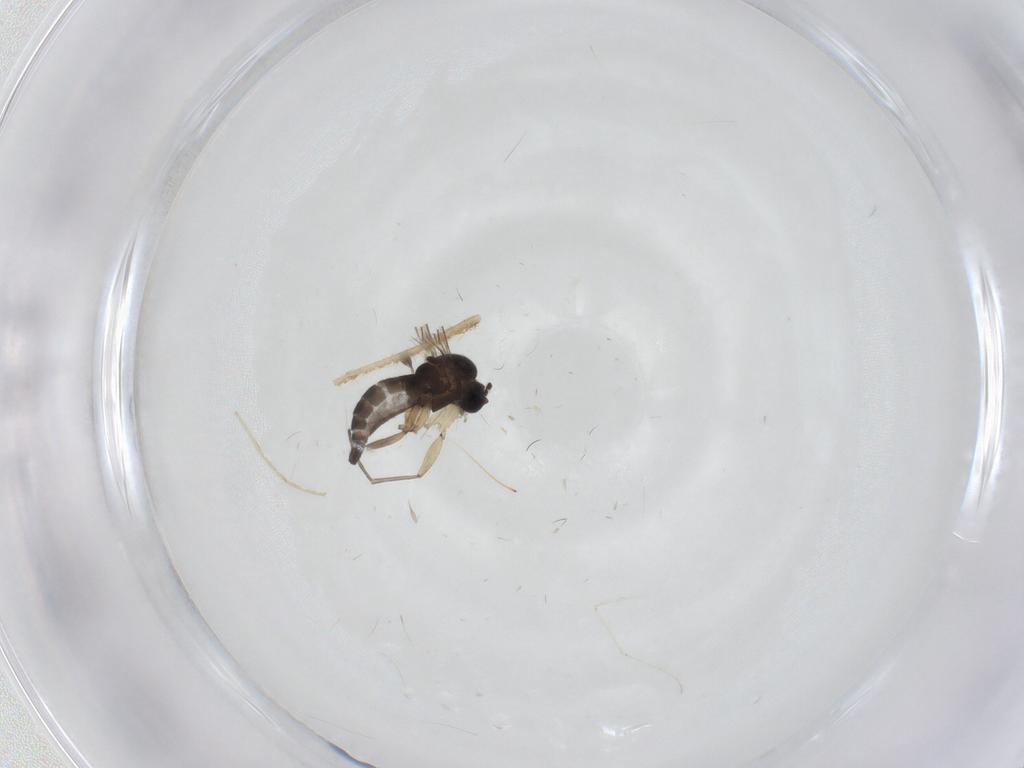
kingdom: Animalia
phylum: Arthropoda
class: Insecta
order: Diptera
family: Sciaridae
